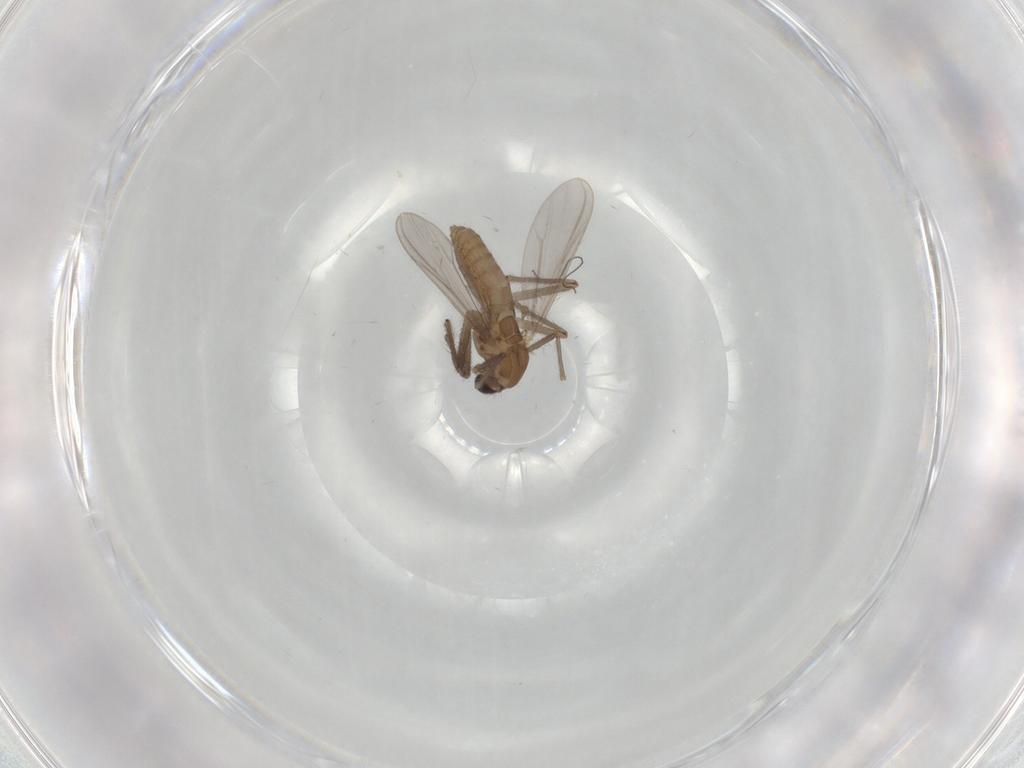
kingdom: Animalia
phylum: Arthropoda
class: Insecta
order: Diptera
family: Chironomidae
